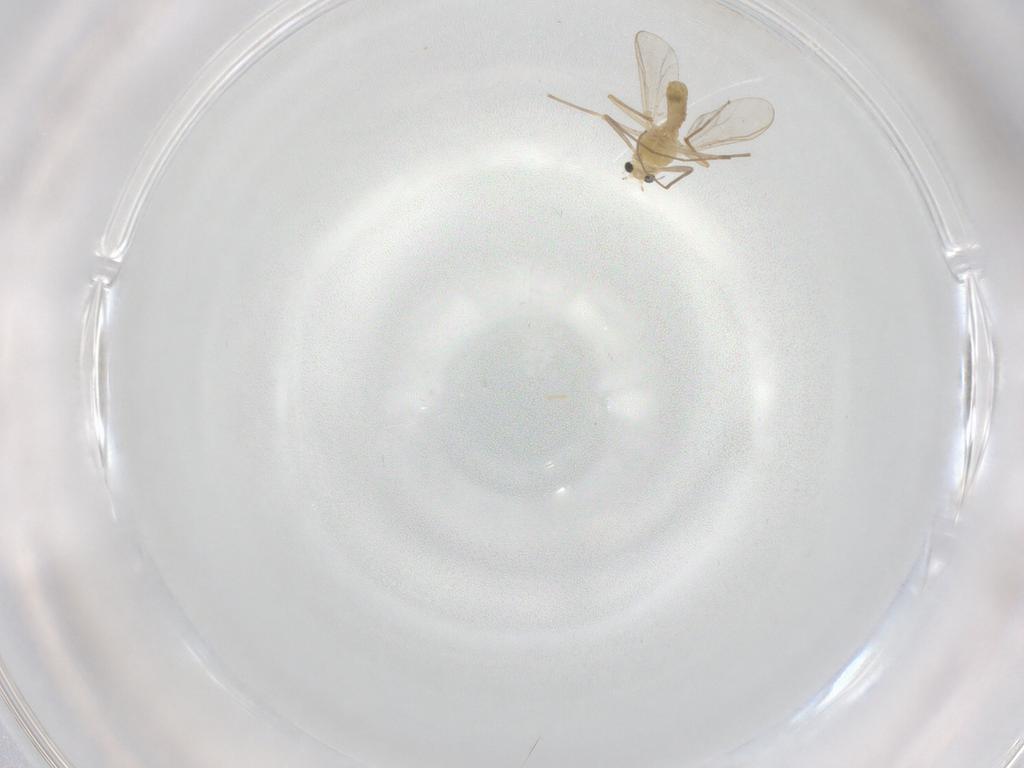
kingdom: Animalia
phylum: Arthropoda
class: Insecta
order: Diptera
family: Chironomidae
